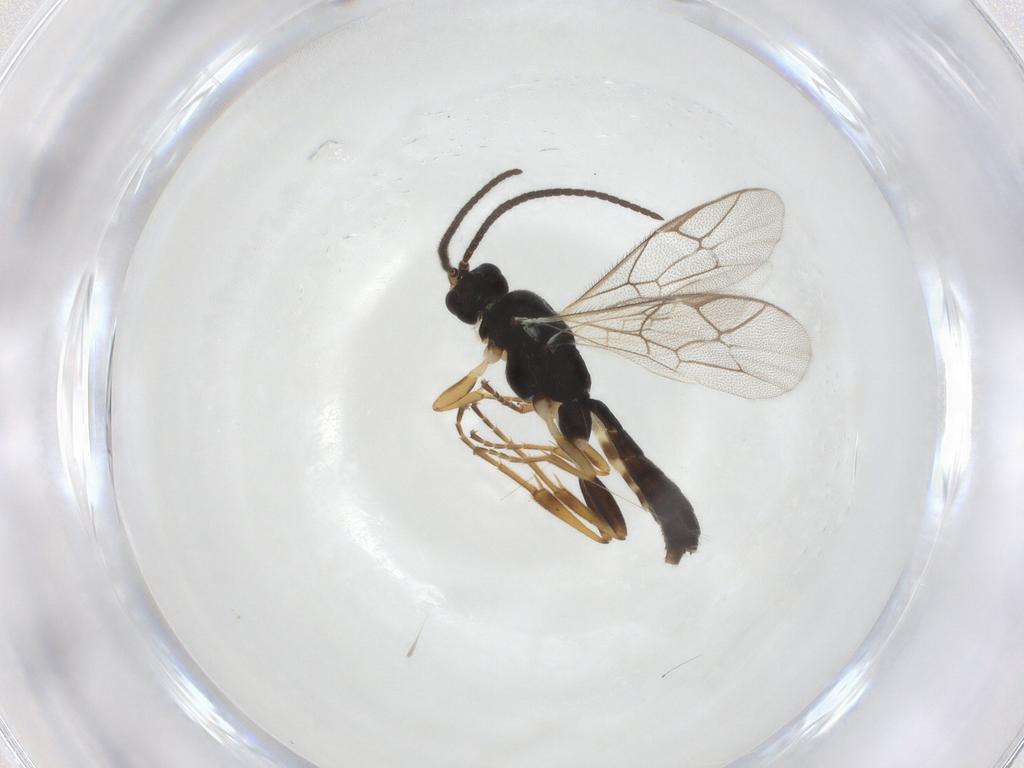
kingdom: Animalia
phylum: Arthropoda
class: Insecta
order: Hymenoptera
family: Ichneumonidae
